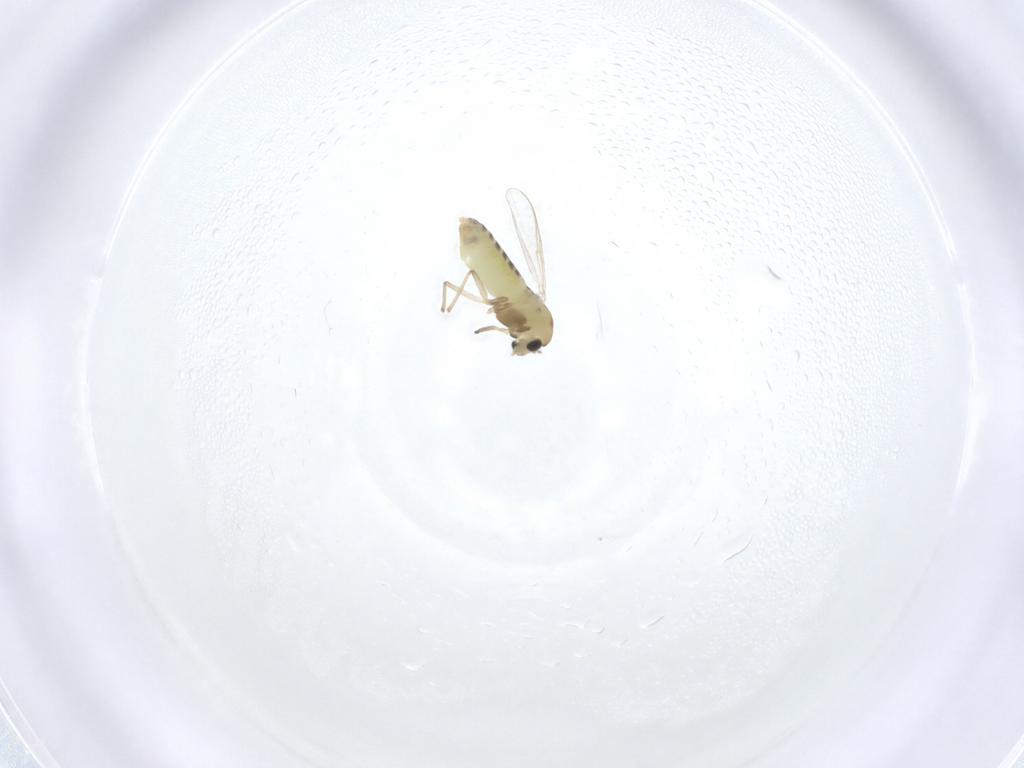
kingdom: Animalia
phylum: Arthropoda
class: Insecta
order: Diptera
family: Chironomidae
